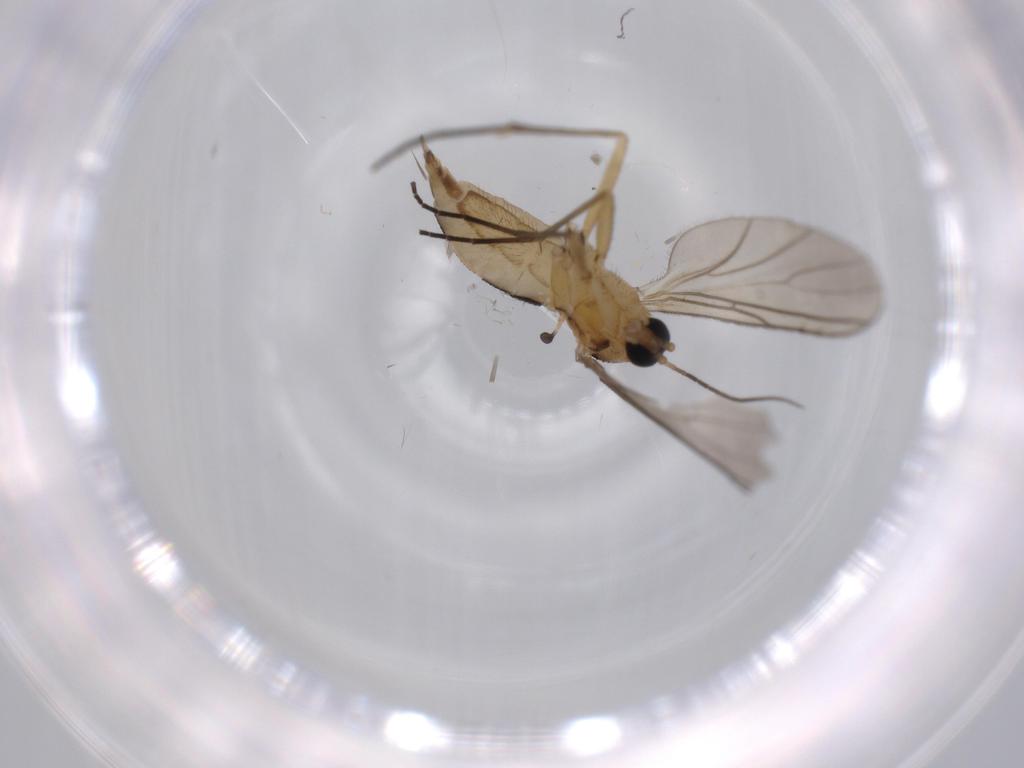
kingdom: Animalia
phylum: Arthropoda
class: Insecta
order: Diptera
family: Sciaridae
